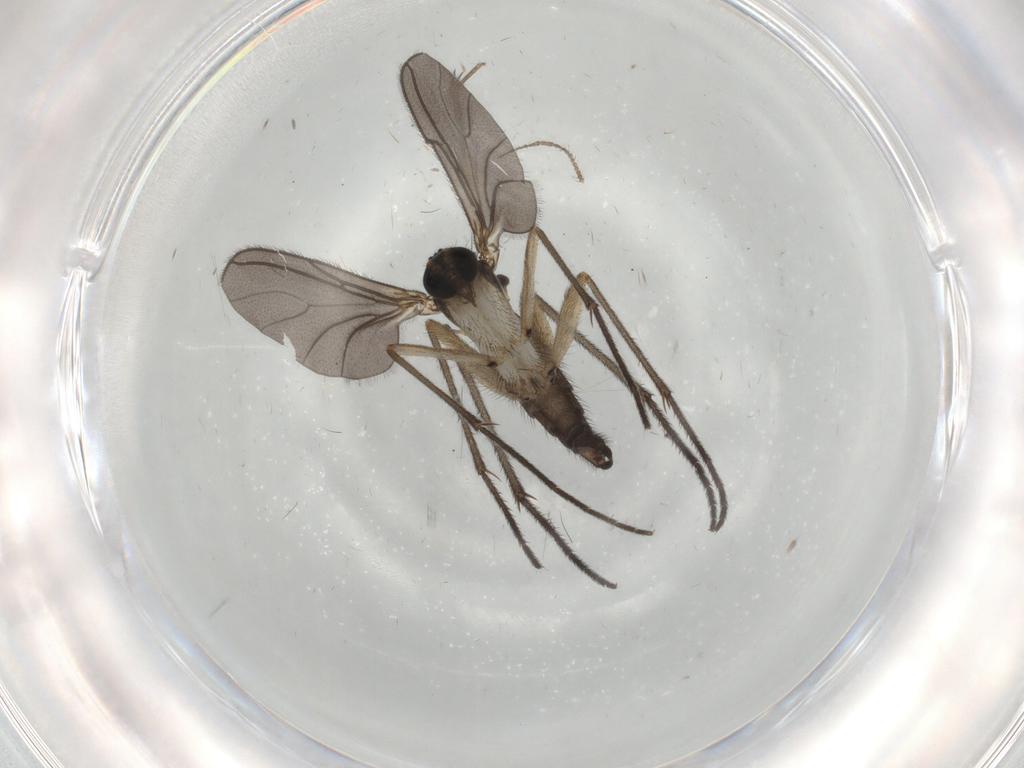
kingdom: Animalia
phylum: Arthropoda
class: Insecta
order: Diptera
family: Sciaridae
